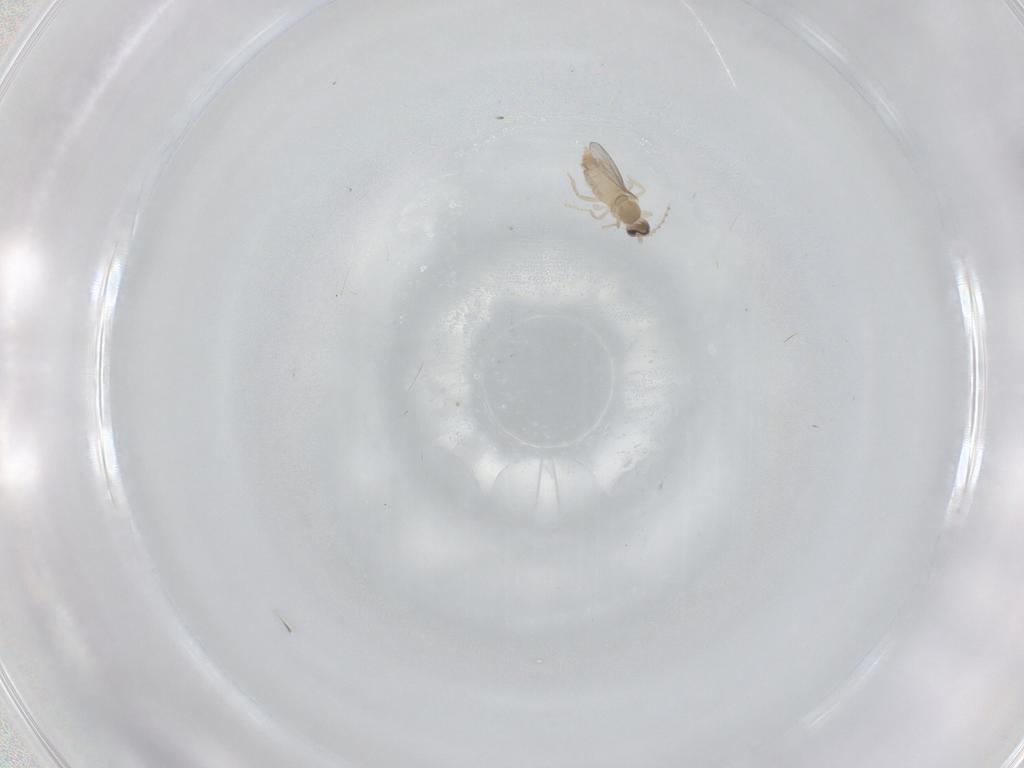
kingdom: Animalia
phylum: Arthropoda
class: Insecta
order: Diptera
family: Cecidomyiidae
